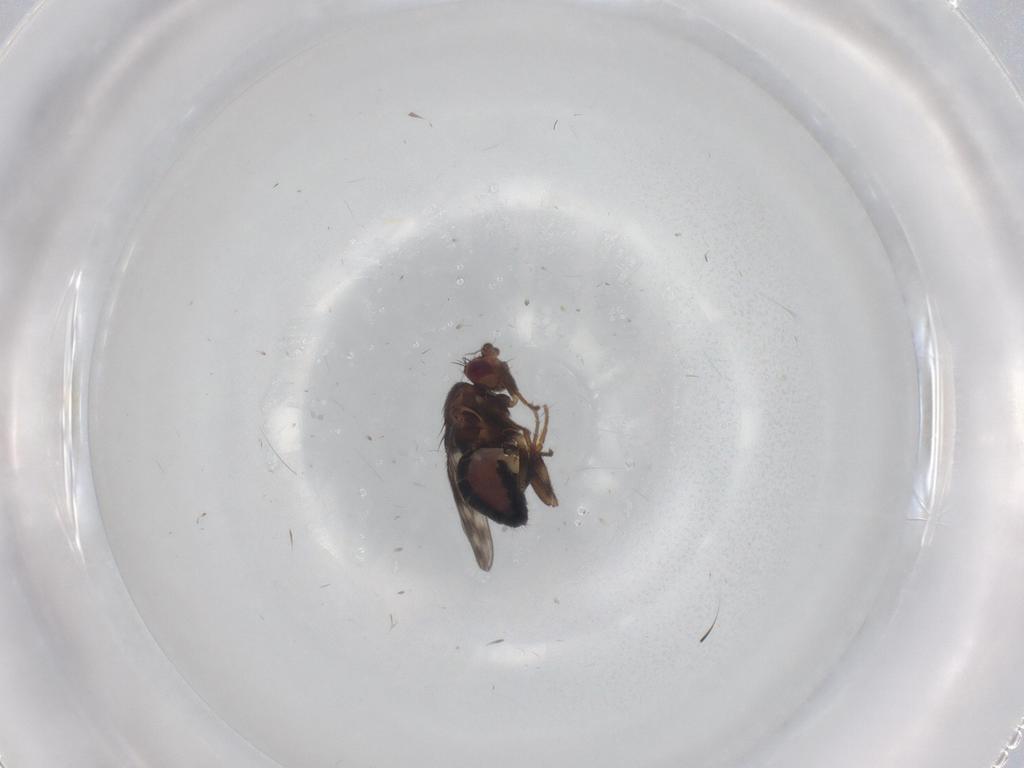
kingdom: Animalia
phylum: Arthropoda
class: Insecta
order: Diptera
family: Sphaeroceridae
